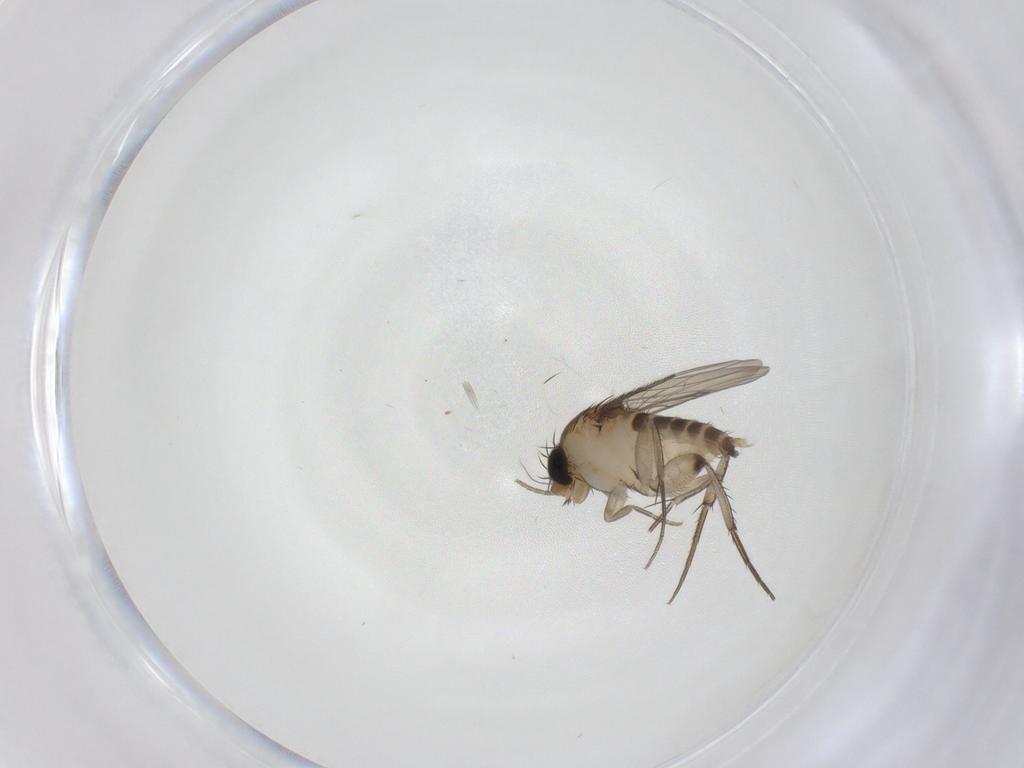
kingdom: Animalia
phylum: Arthropoda
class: Insecta
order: Diptera
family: Phoridae
